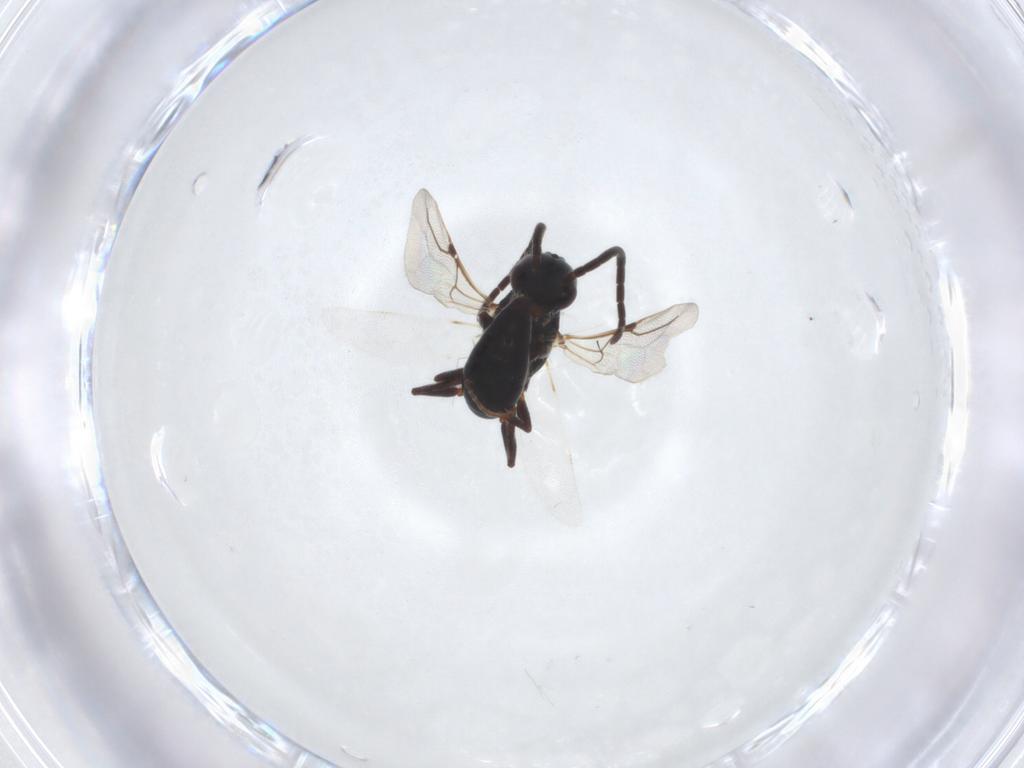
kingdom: Animalia
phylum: Arthropoda
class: Insecta
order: Hymenoptera
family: Bethylidae
